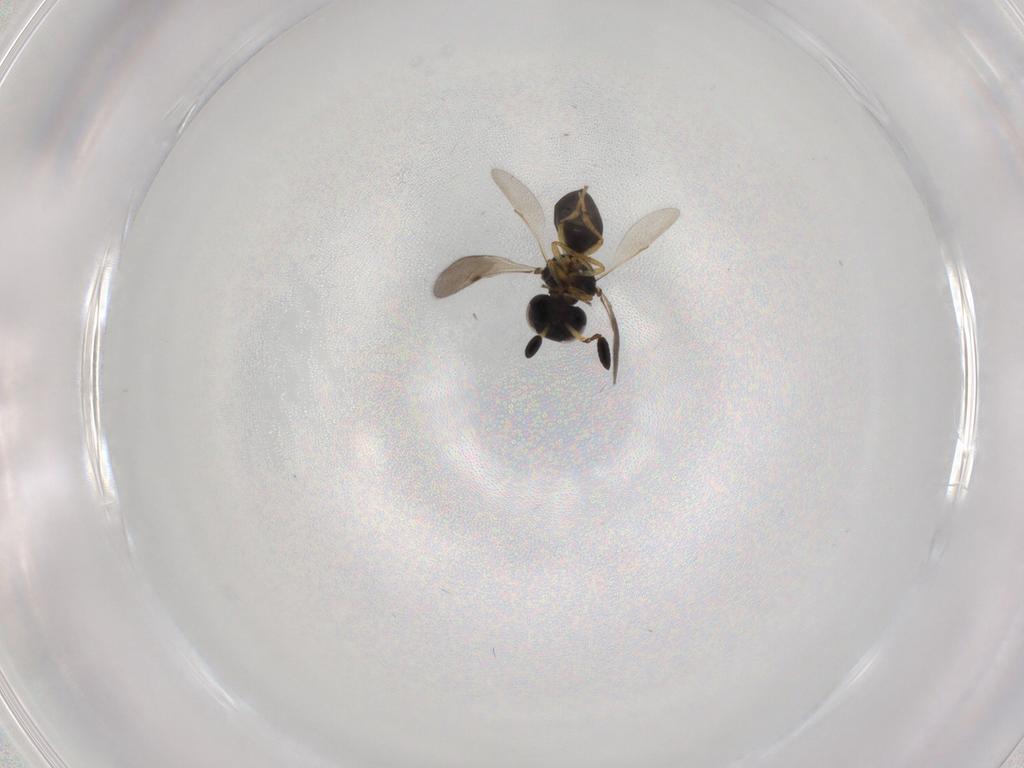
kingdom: Animalia
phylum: Arthropoda
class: Insecta
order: Hymenoptera
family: Scelionidae
